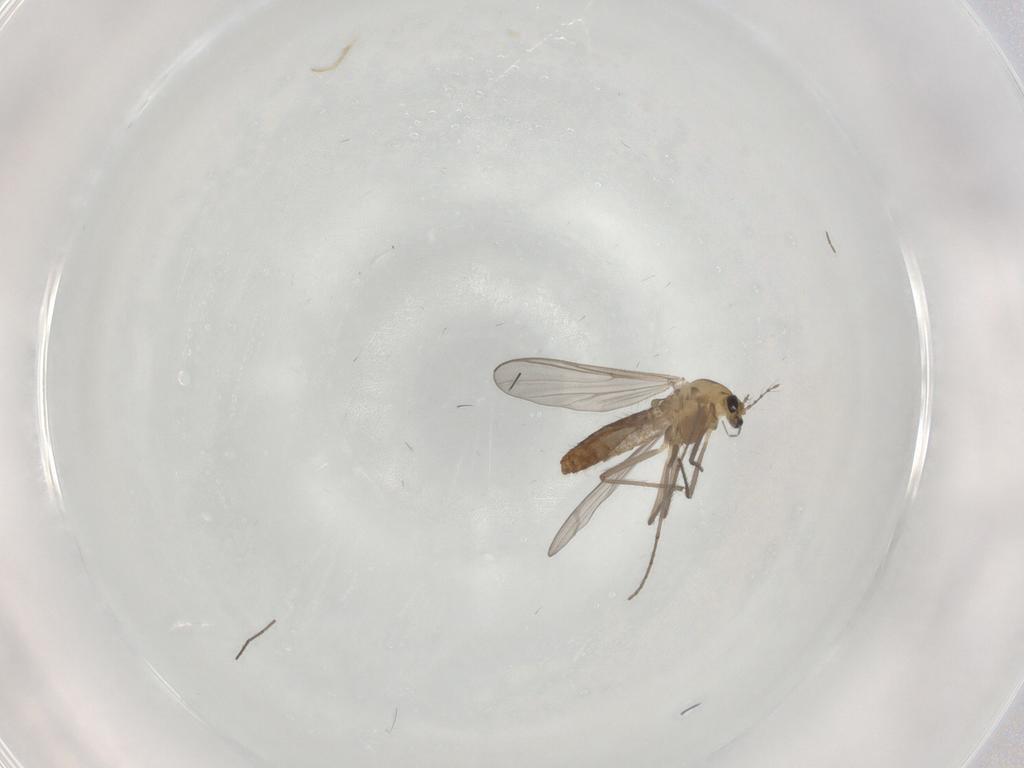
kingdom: Animalia
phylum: Arthropoda
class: Insecta
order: Diptera
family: Chironomidae
